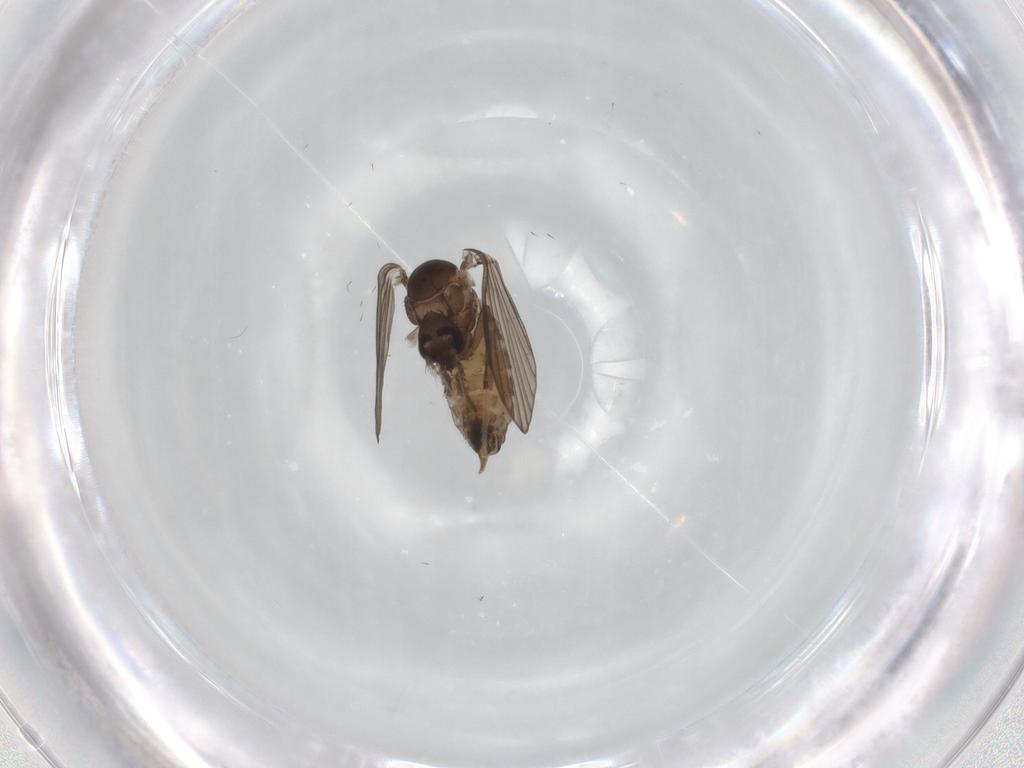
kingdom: Animalia
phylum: Arthropoda
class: Insecta
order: Diptera
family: Psychodidae
